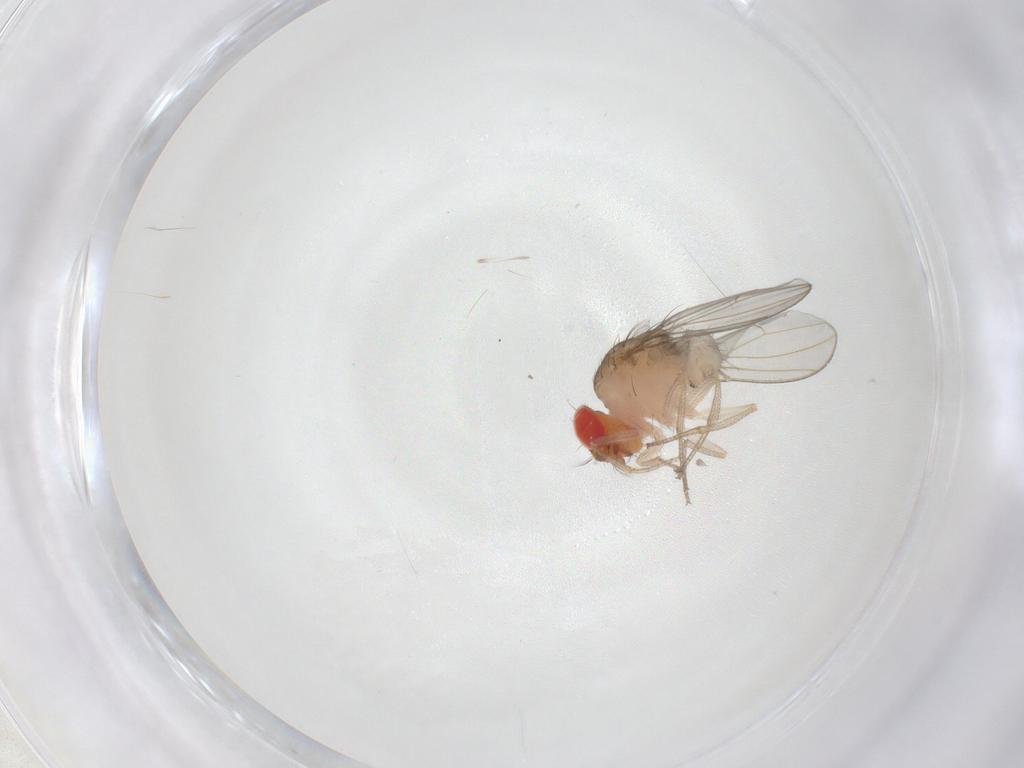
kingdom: Animalia
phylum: Arthropoda
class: Insecta
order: Diptera
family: Drosophilidae
